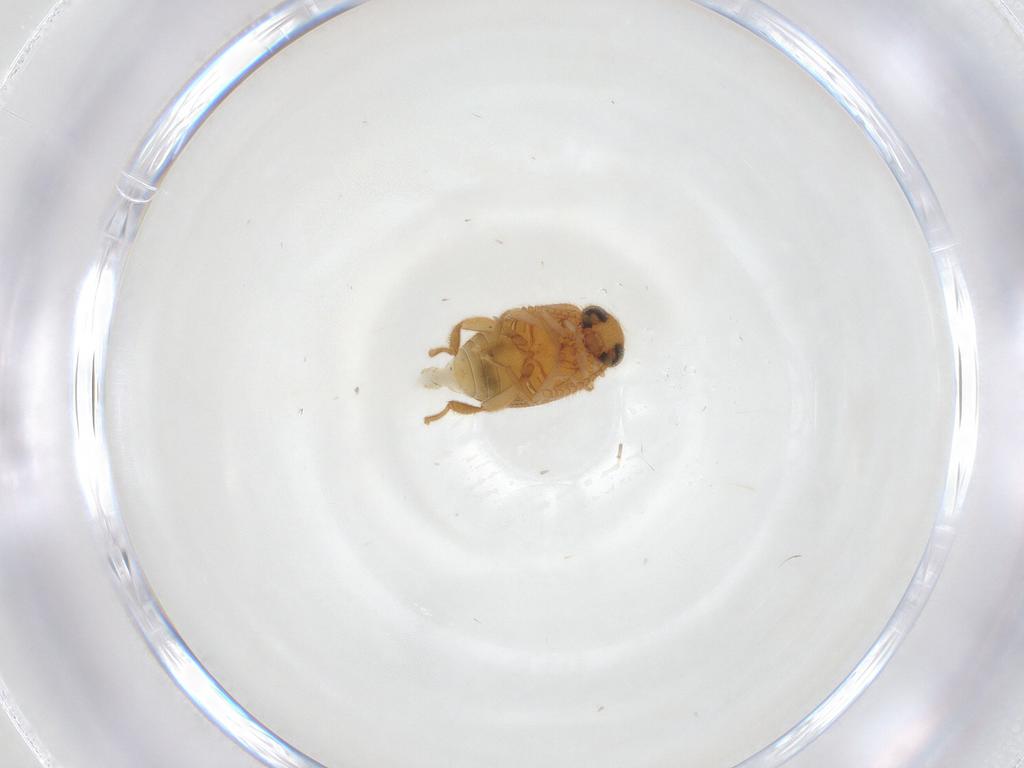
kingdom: Animalia
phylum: Arthropoda
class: Insecta
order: Coleoptera
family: Aderidae
